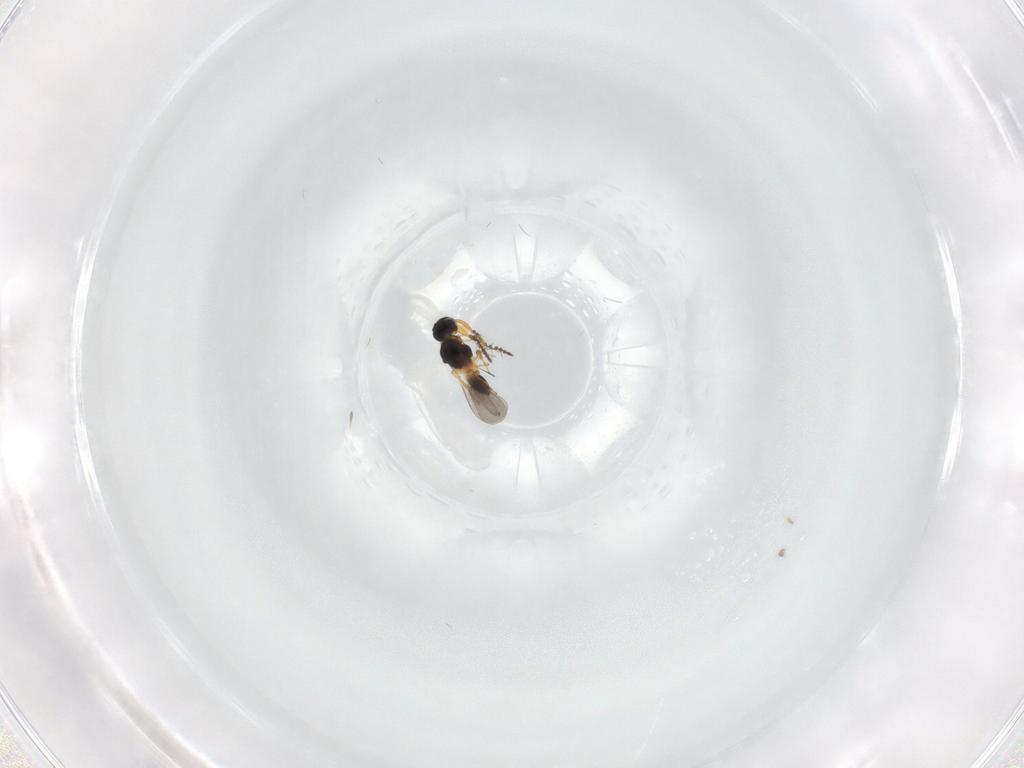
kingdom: Animalia
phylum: Arthropoda
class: Insecta
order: Hymenoptera
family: Platygastridae
